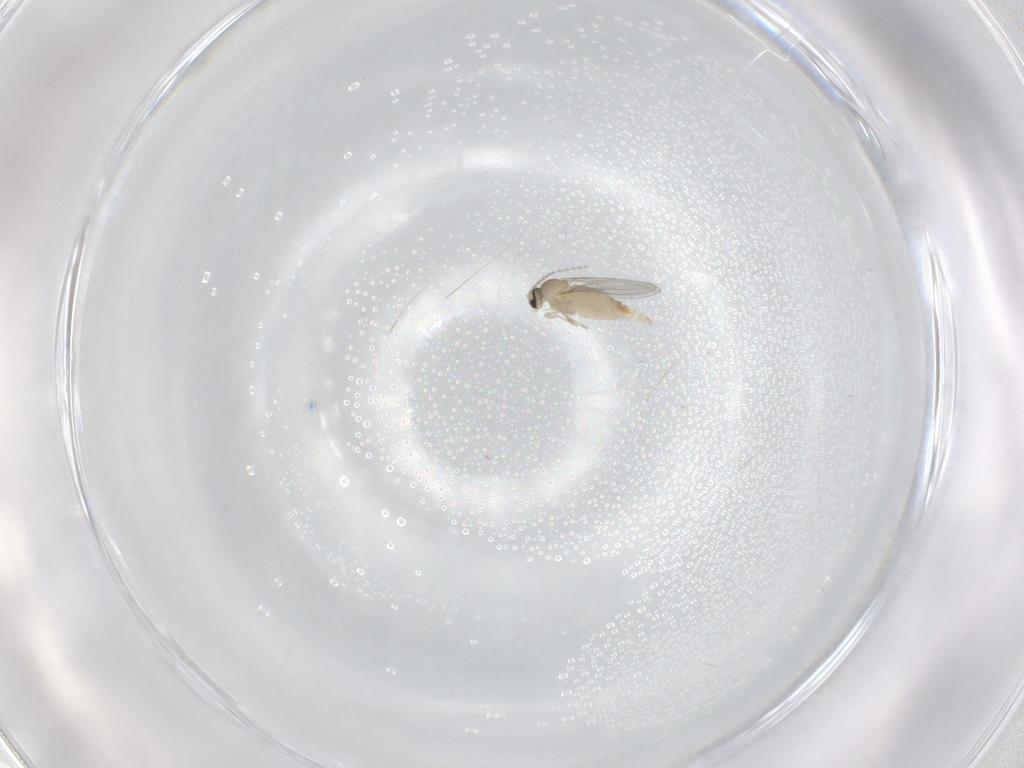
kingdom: Animalia
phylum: Arthropoda
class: Insecta
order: Diptera
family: Cecidomyiidae
